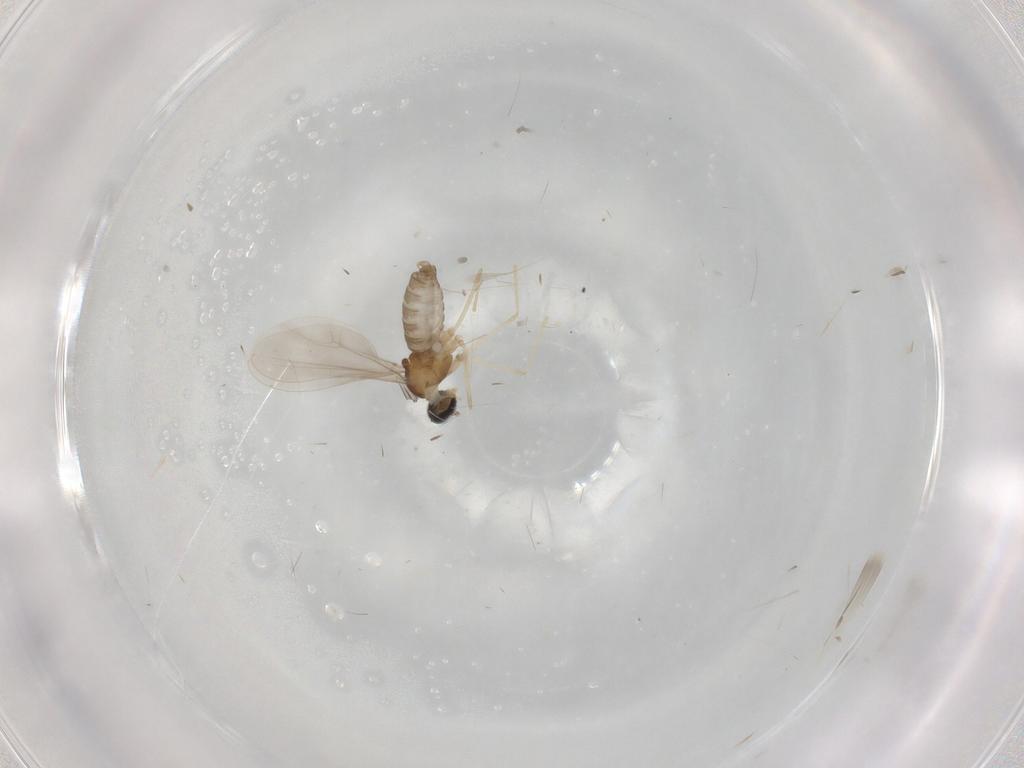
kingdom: Animalia
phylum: Arthropoda
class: Insecta
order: Diptera
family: Cecidomyiidae
